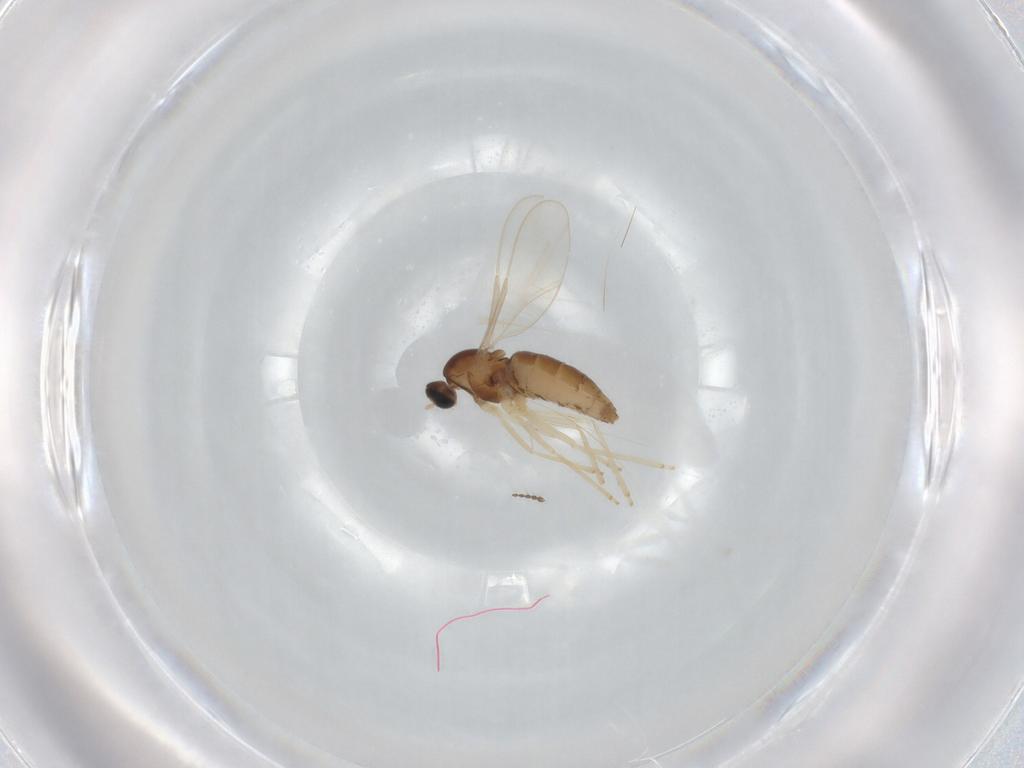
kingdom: Animalia
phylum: Arthropoda
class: Insecta
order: Diptera
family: Cecidomyiidae
